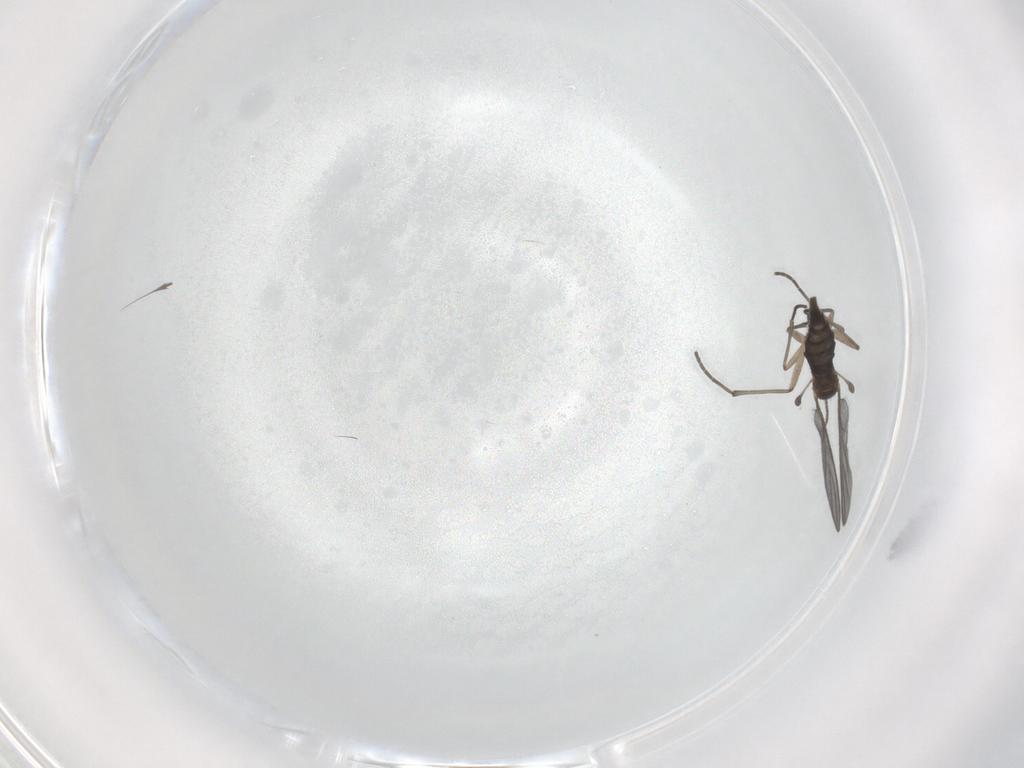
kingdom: Animalia
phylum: Arthropoda
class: Insecta
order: Diptera
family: Sciaridae
